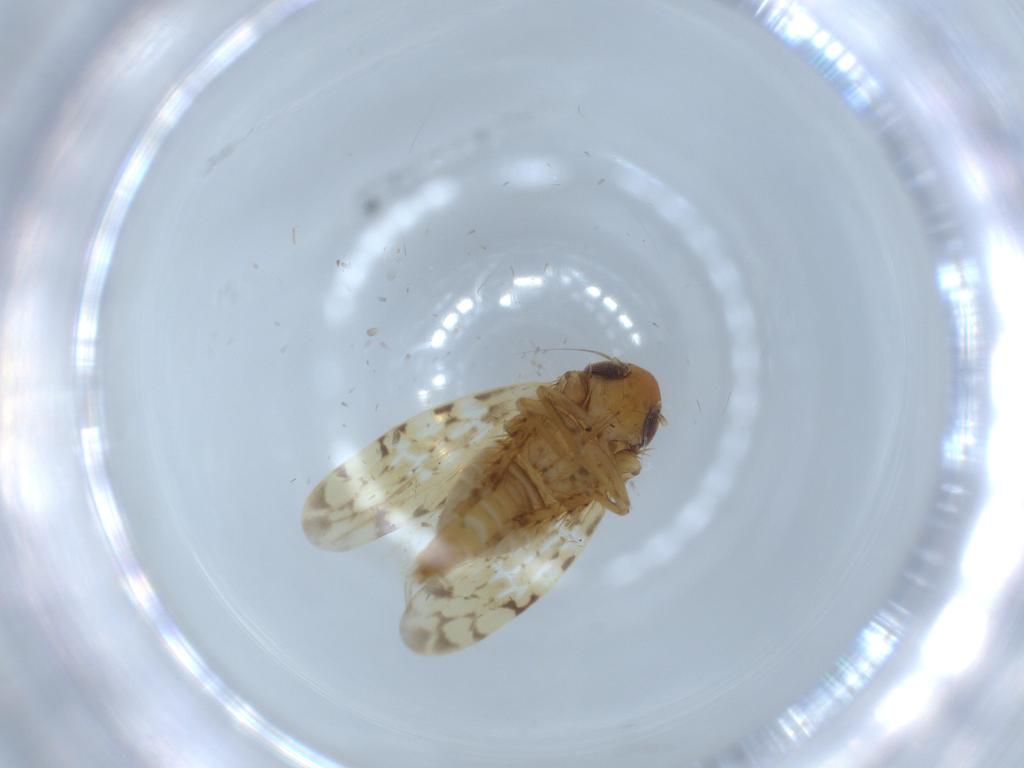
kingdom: Animalia
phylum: Arthropoda
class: Insecta
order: Hemiptera
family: Cicadellidae
